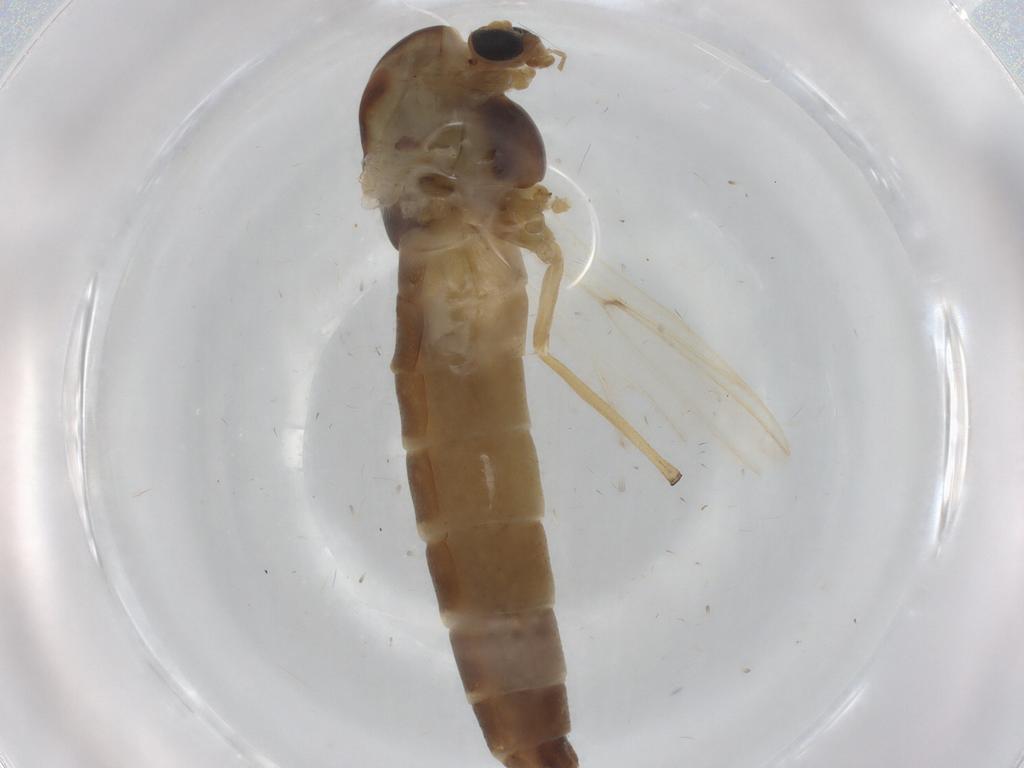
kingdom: Animalia
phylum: Arthropoda
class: Insecta
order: Diptera
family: Chironomidae
